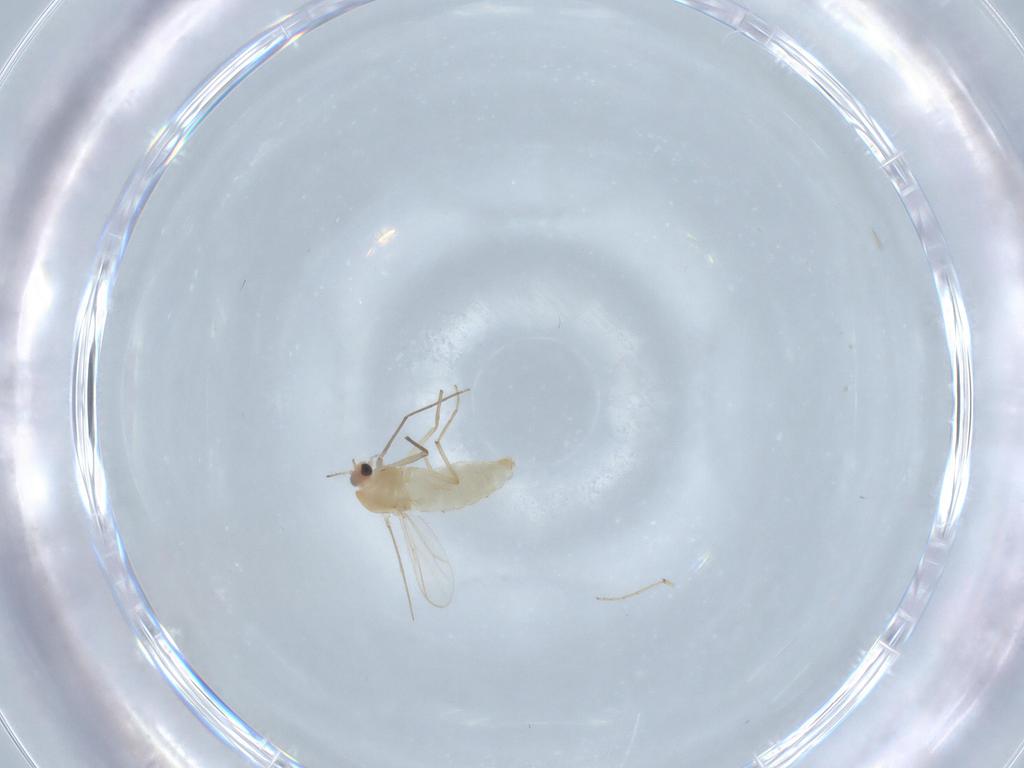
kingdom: Animalia
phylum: Arthropoda
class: Insecta
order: Diptera
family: Chironomidae
